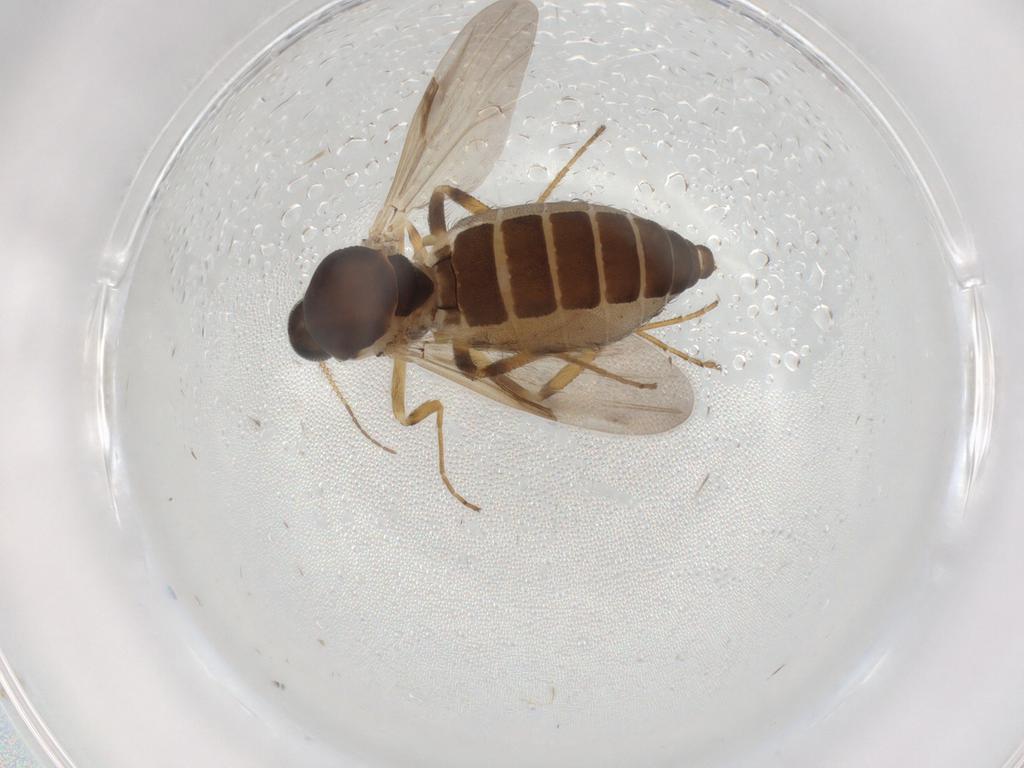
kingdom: Animalia
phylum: Arthropoda
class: Insecta
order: Diptera
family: Ceratopogonidae
